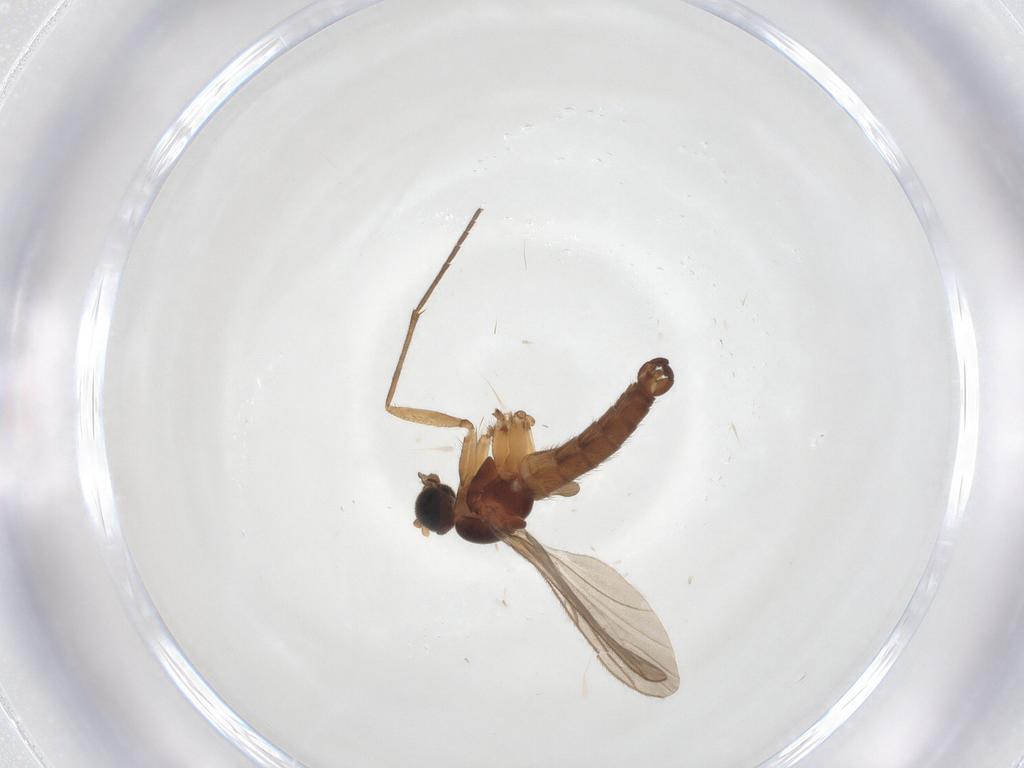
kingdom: Animalia
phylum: Arthropoda
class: Insecta
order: Diptera
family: Sciaridae
